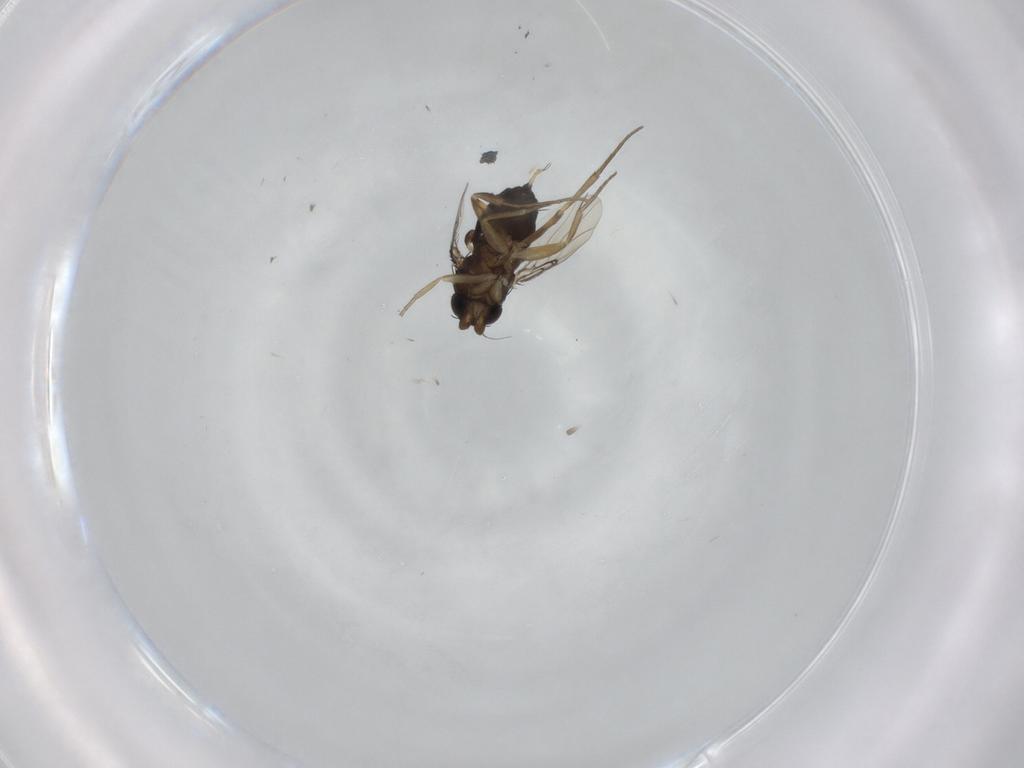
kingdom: Animalia
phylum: Arthropoda
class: Insecta
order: Diptera
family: Phoridae
